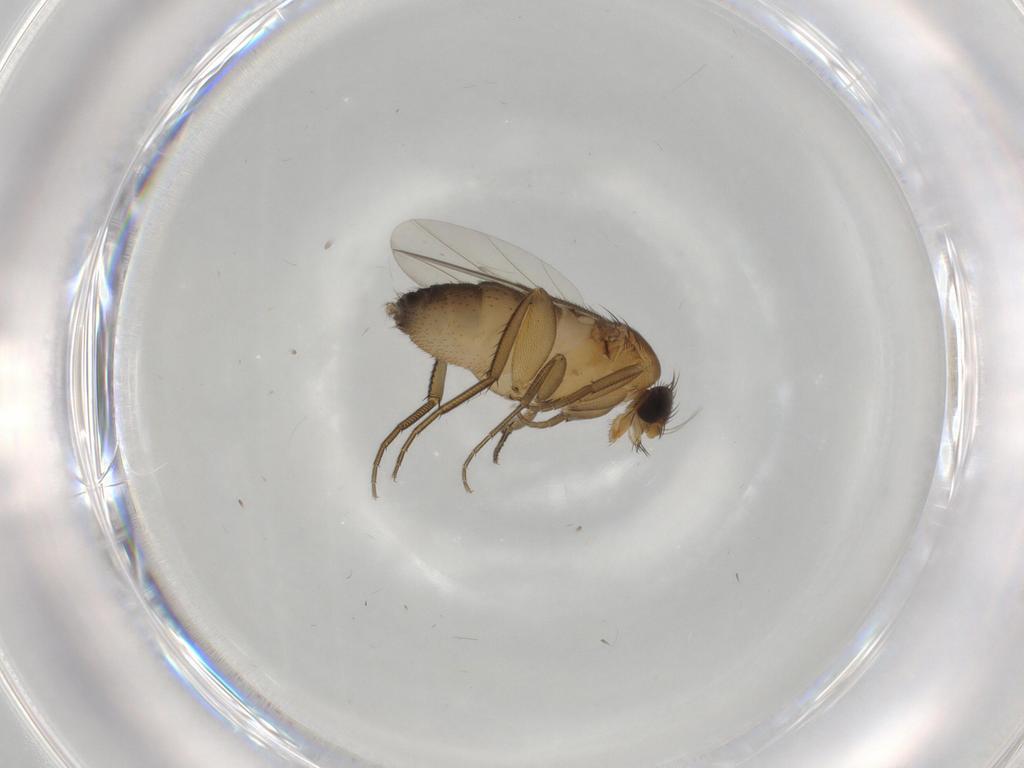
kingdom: Animalia
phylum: Arthropoda
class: Insecta
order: Diptera
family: Phoridae
